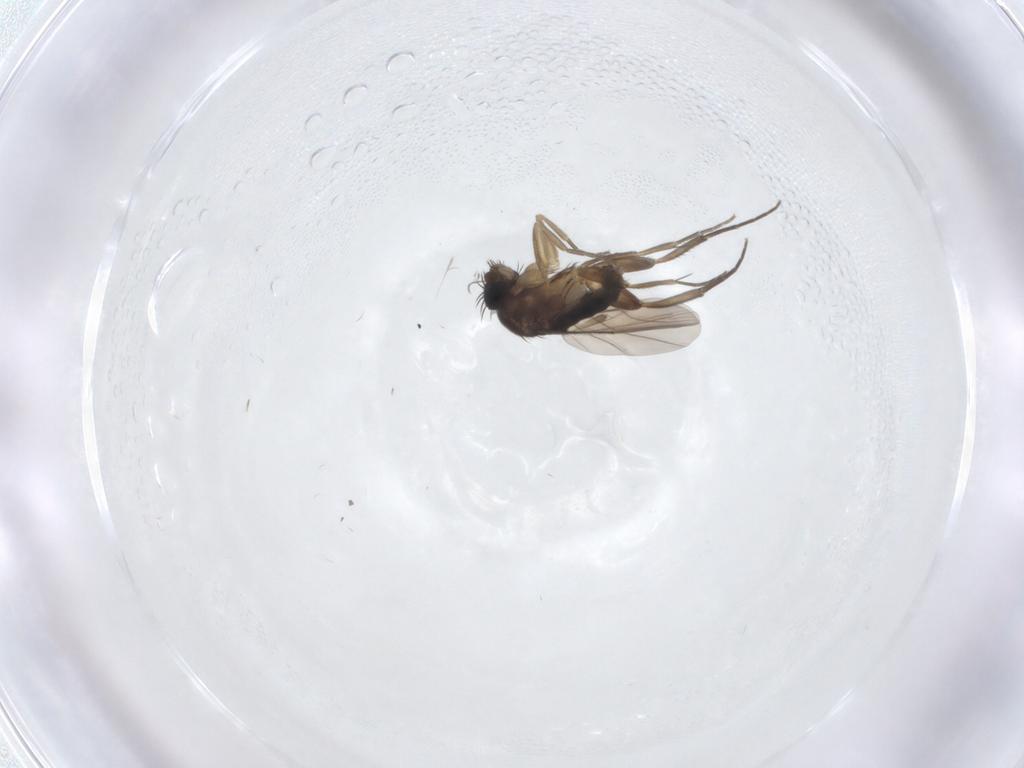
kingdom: Animalia
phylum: Arthropoda
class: Insecta
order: Diptera
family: Phoridae
